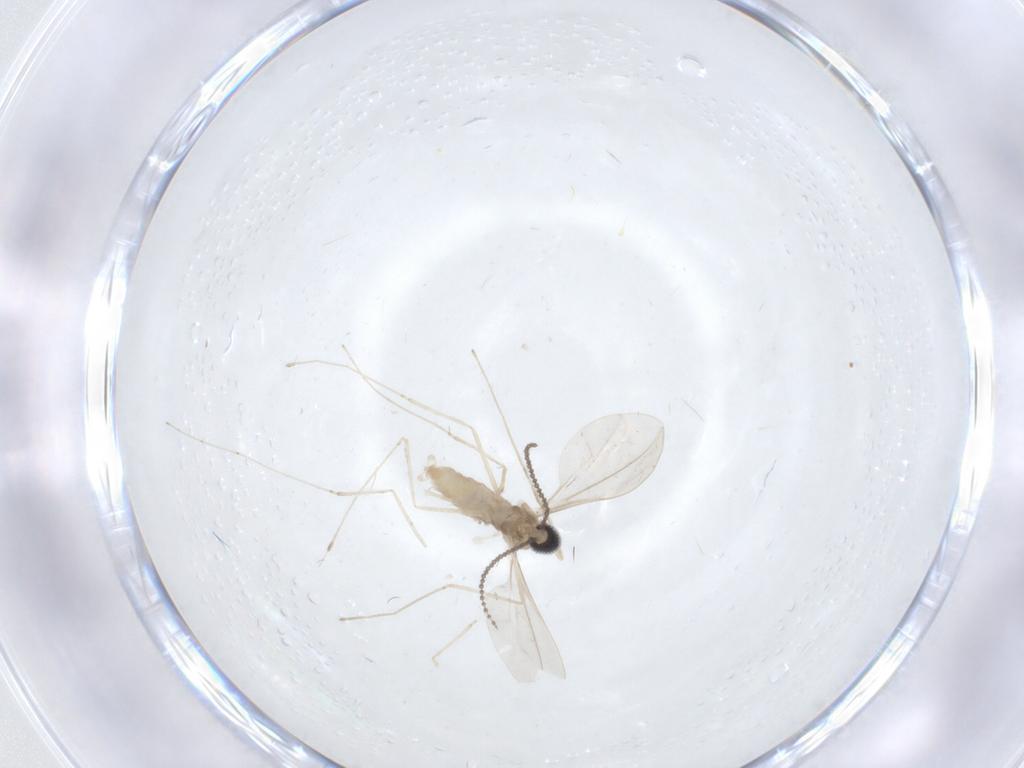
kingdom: Animalia
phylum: Arthropoda
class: Insecta
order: Diptera
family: Cecidomyiidae
